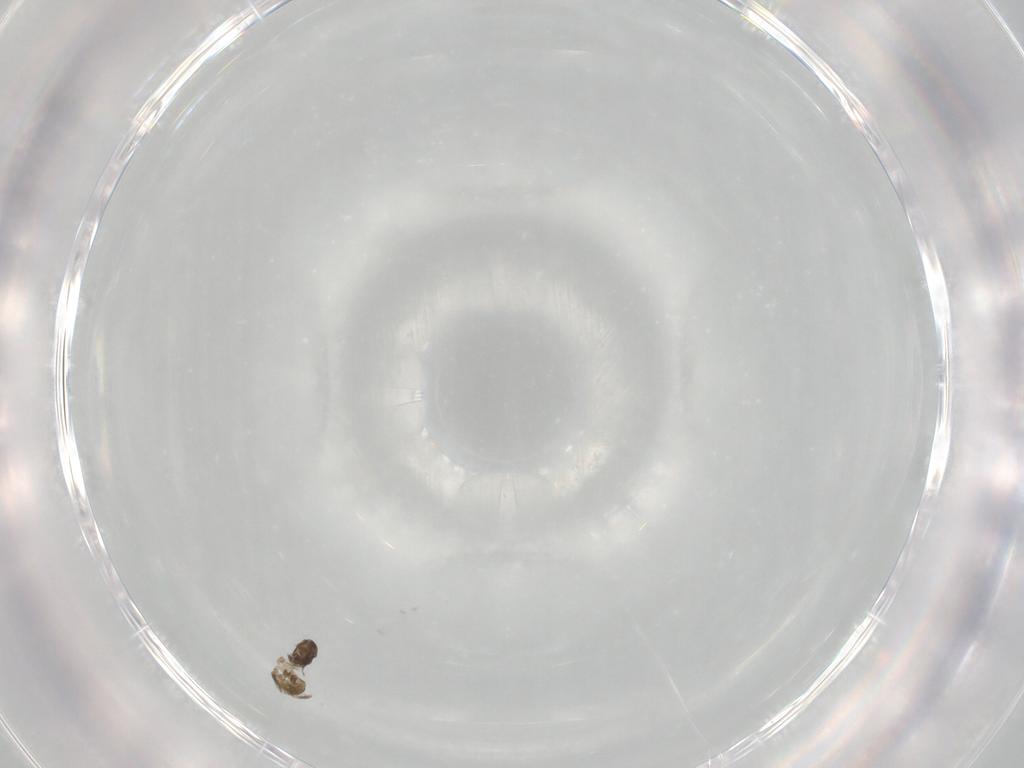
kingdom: Animalia
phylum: Arthropoda
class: Insecta
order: Hymenoptera
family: Mymaridae
